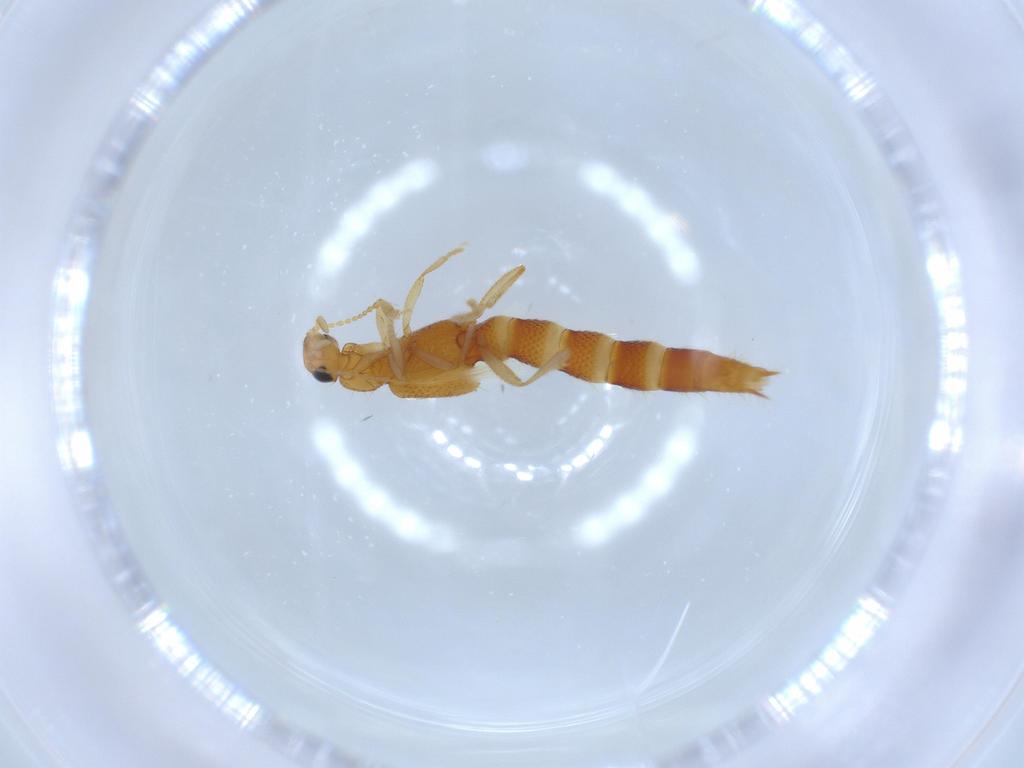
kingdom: Animalia
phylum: Arthropoda
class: Insecta
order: Coleoptera
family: Staphylinidae
